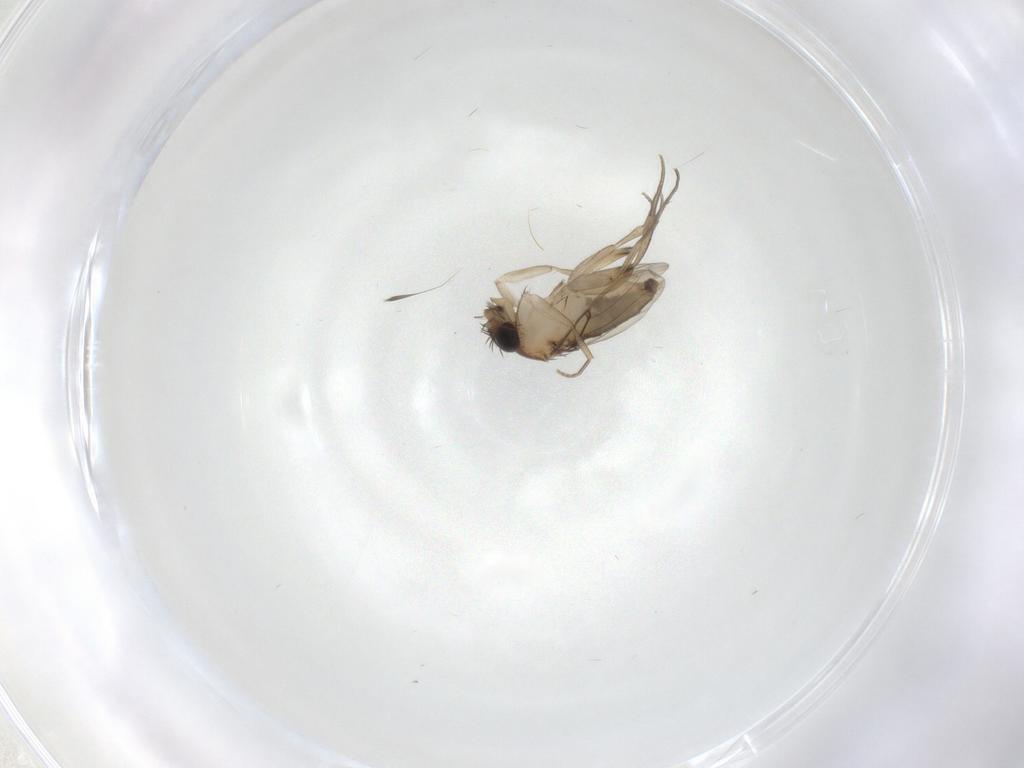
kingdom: Animalia
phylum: Arthropoda
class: Insecta
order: Diptera
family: Phoridae
